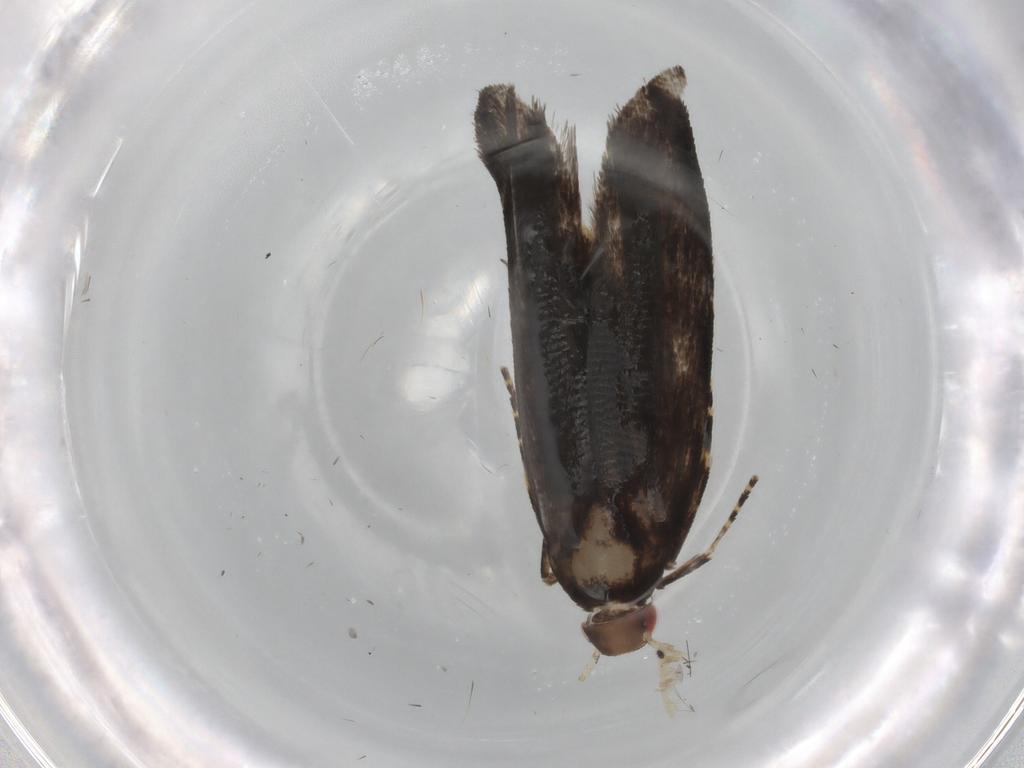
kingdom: Animalia
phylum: Arthropoda
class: Insecta
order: Lepidoptera
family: Gelechiidae
